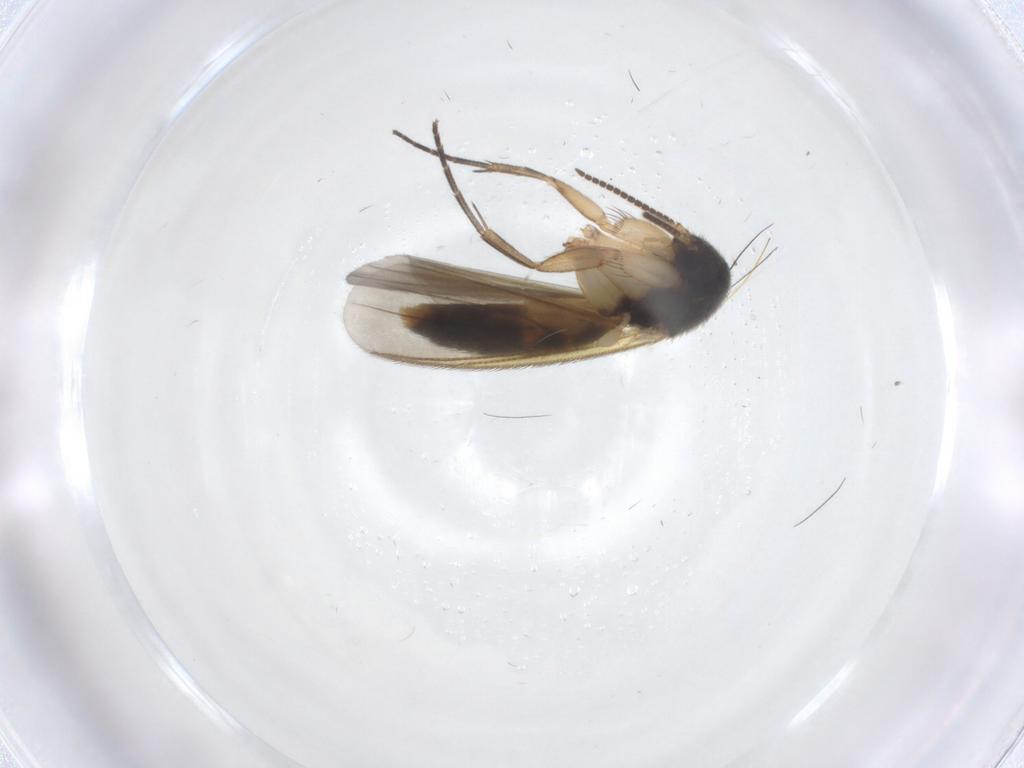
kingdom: Animalia
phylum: Arthropoda
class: Insecta
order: Diptera
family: Mycetophilidae
